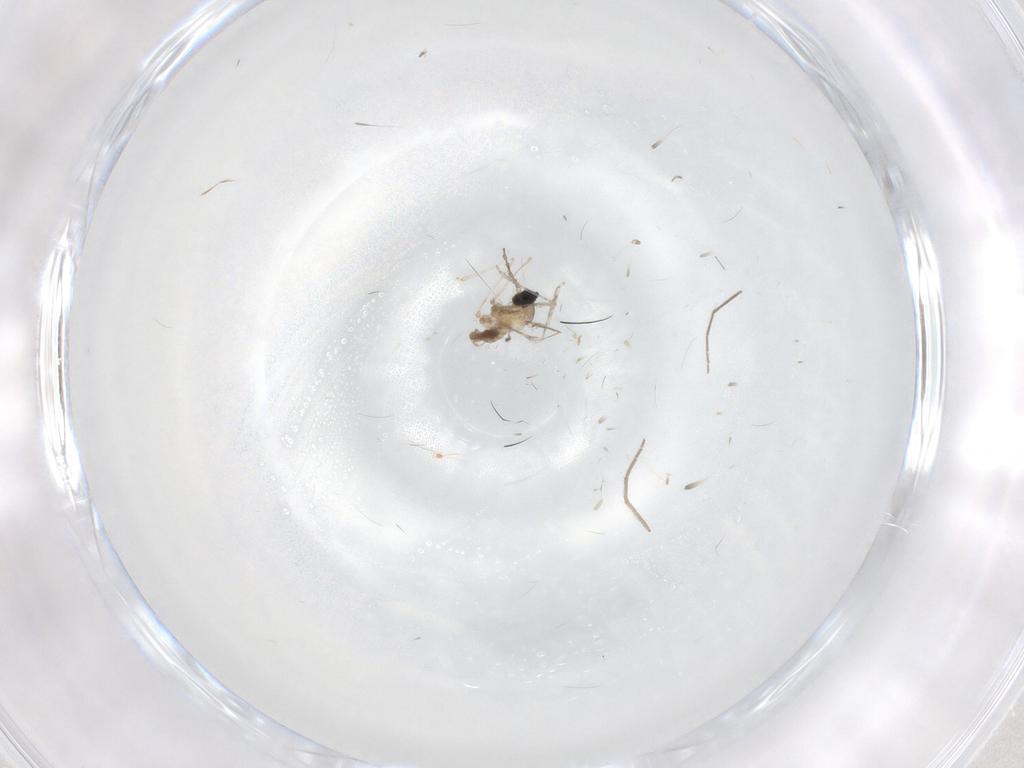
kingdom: Animalia
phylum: Arthropoda
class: Insecta
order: Diptera
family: Cecidomyiidae
